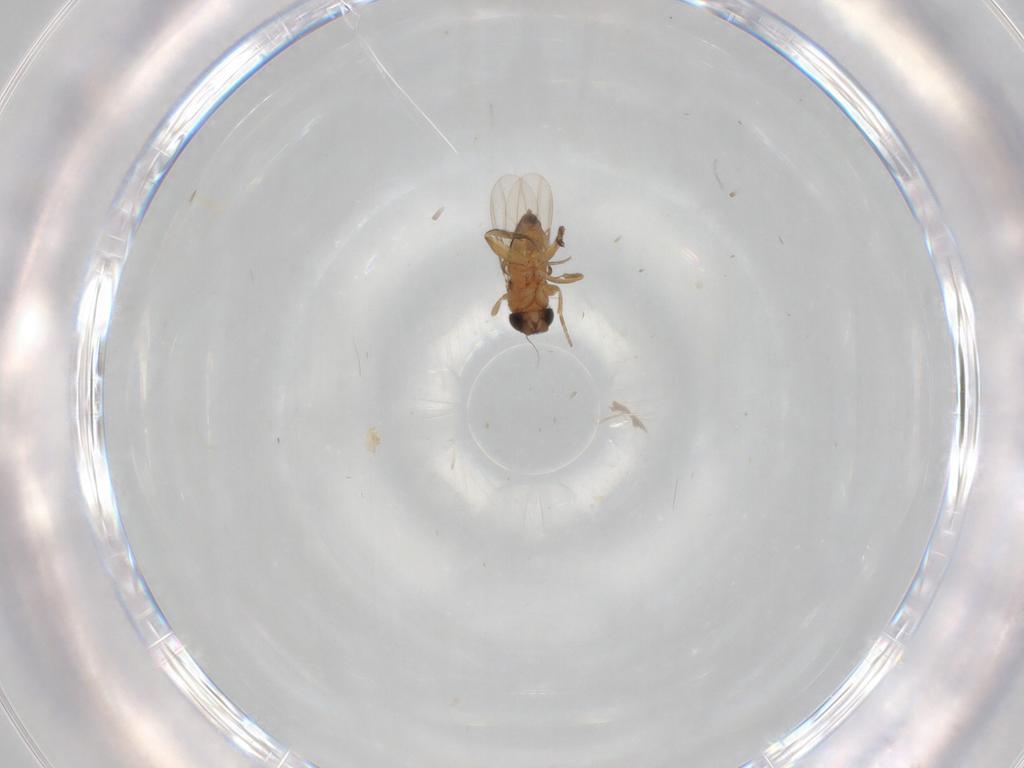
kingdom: Animalia
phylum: Arthropoda
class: Insecta
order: Diptera
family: Phoridae
